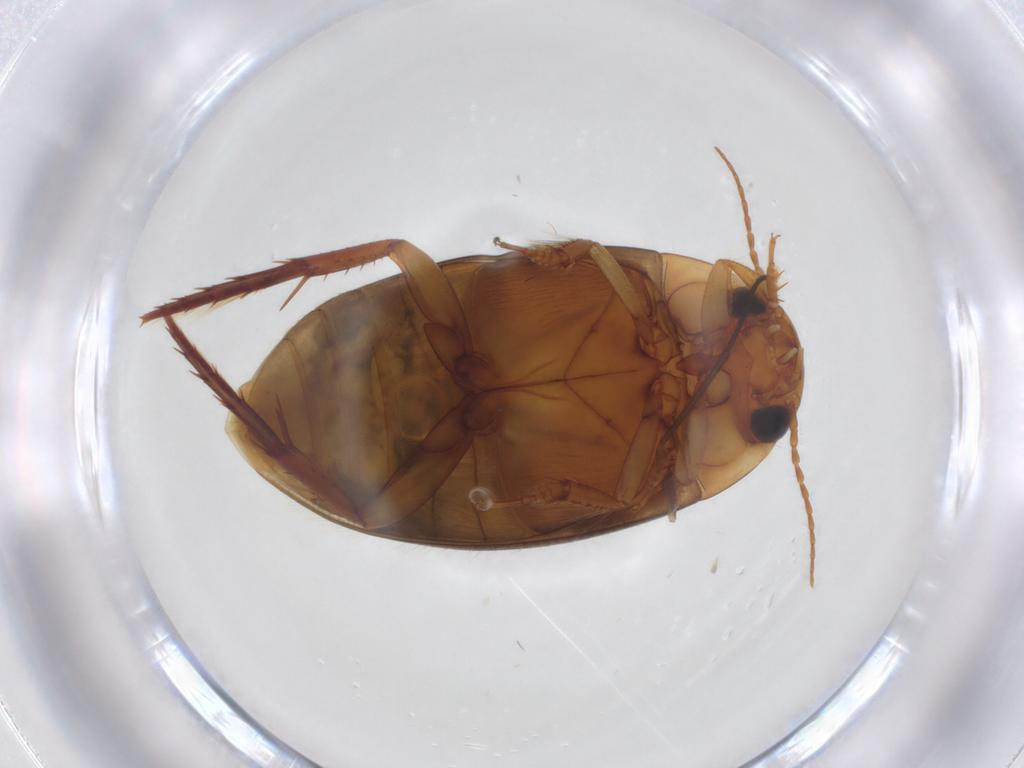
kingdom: Animalia
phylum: Arthropoda
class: Insecta
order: Coleoptera
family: Dytiscidae
